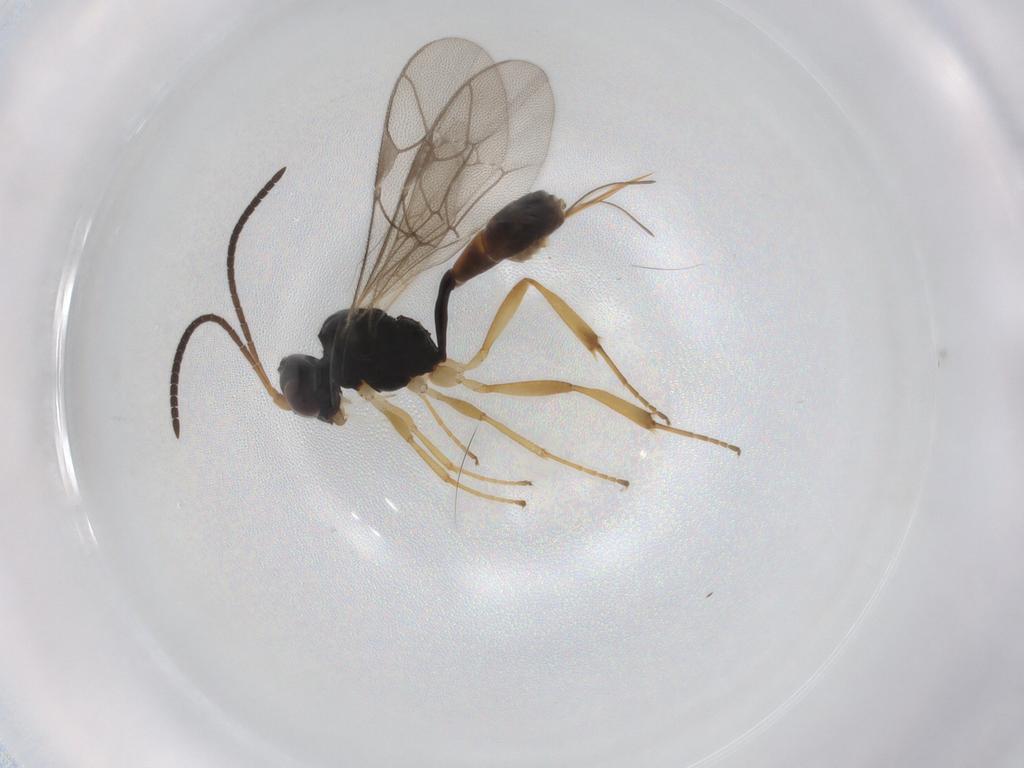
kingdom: Animalia
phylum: Arthropoda
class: Insecta
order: Hymenoptera
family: Ichneumonidae
